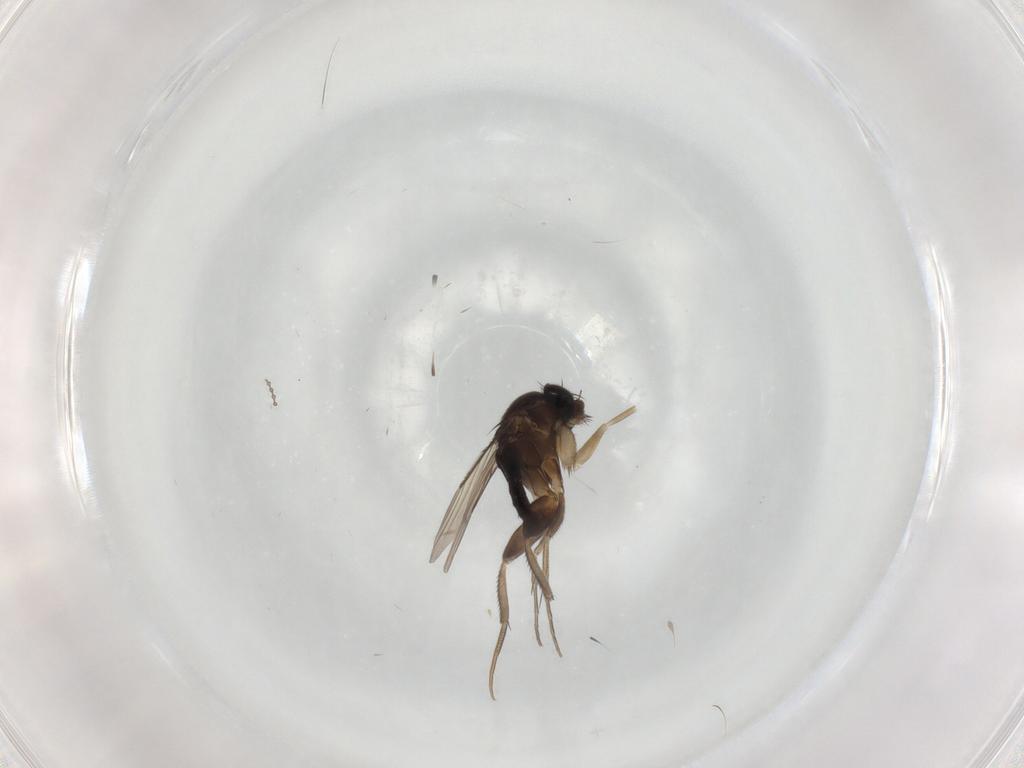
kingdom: Animalia
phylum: Arthropoda
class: Insecta
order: Diptera
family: Phoridae
